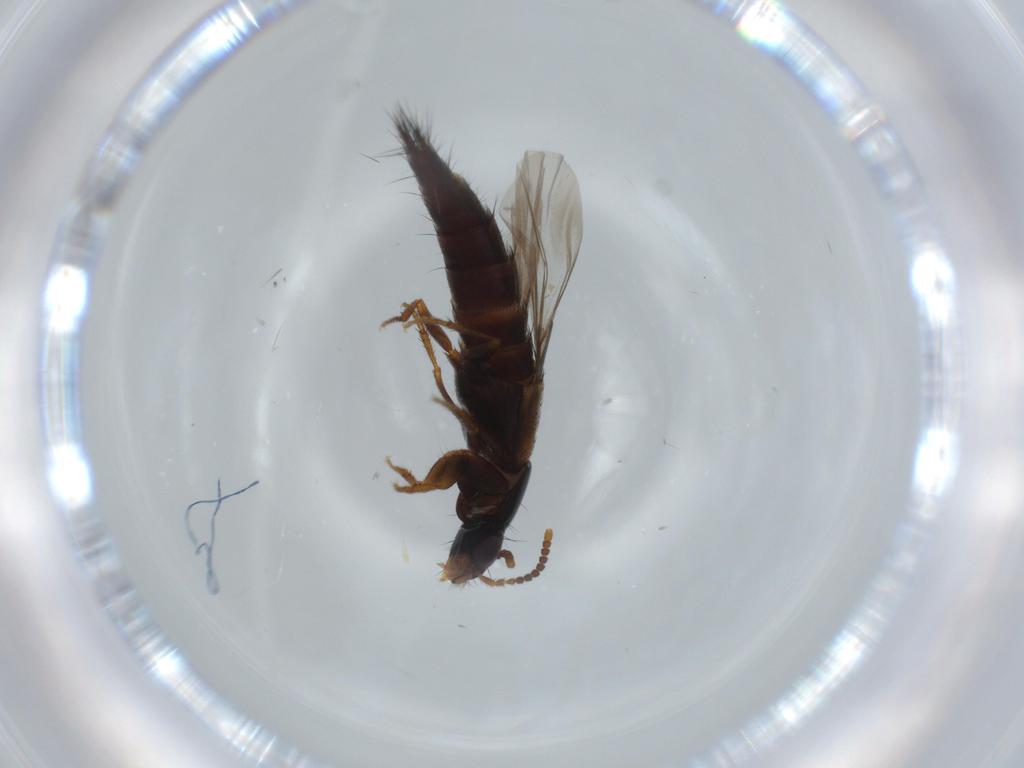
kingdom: Animalia
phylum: Arthropoda
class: Insecta
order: Coleoptera
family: Staphylinidae
